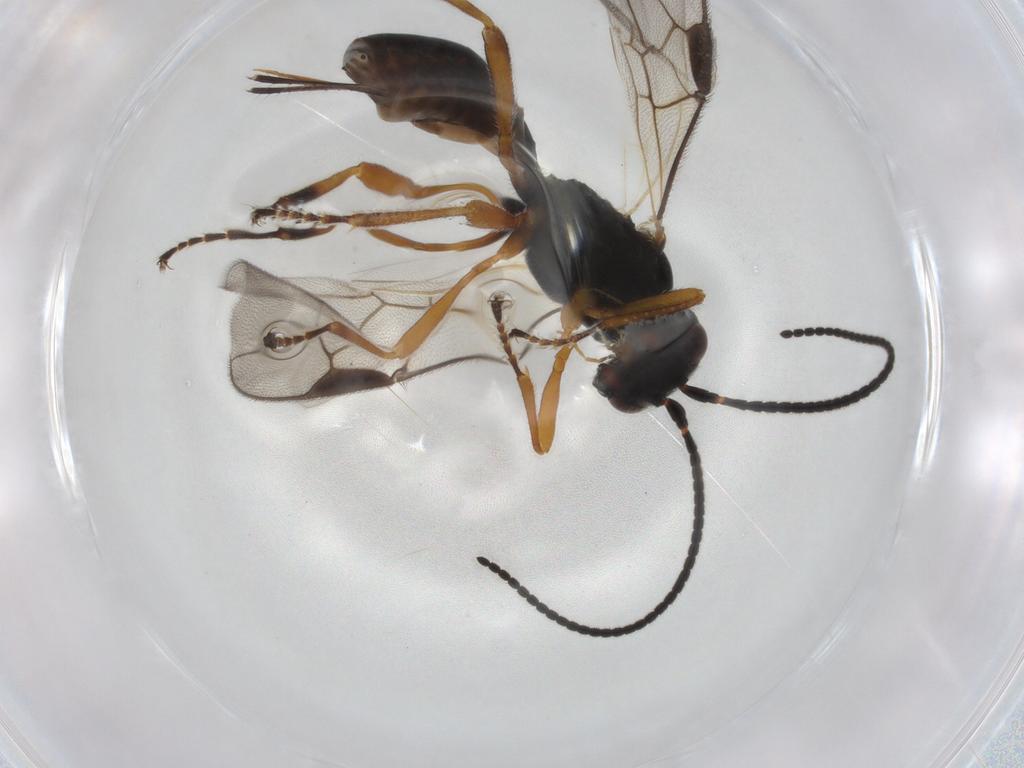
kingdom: Animalia
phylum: Arthropoda
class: Insecta
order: Hymenoptera
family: Braconidae
